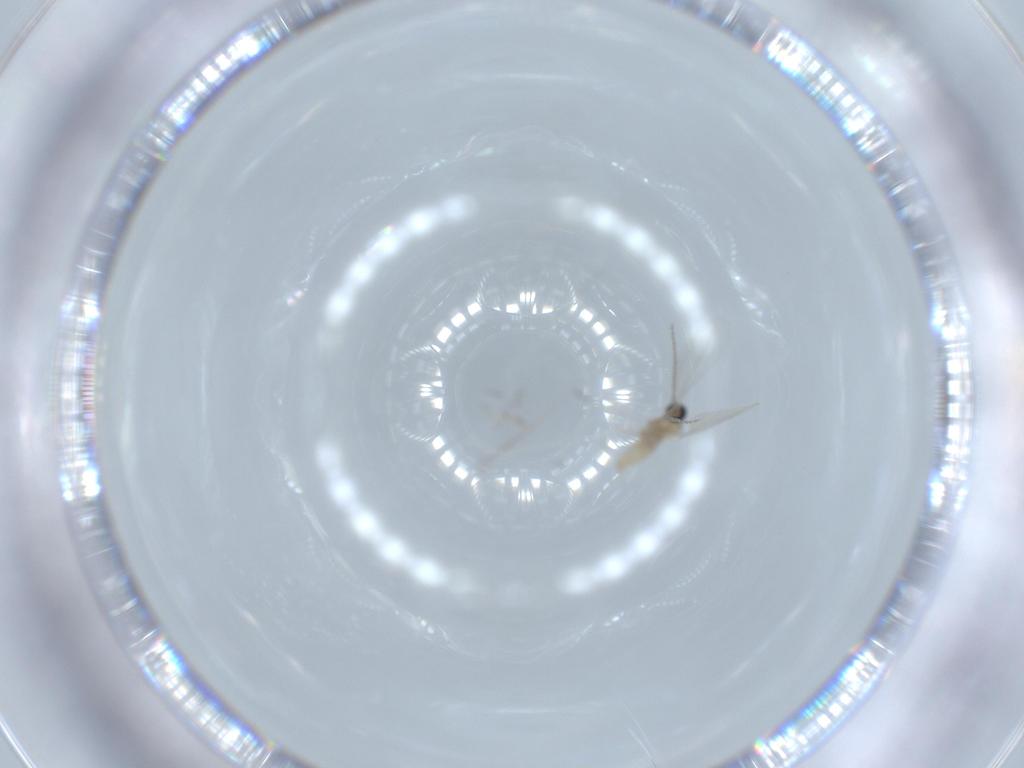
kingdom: Animalia
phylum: Arthropoda
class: Insecta
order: Diptera
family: Cecidomyiidae
